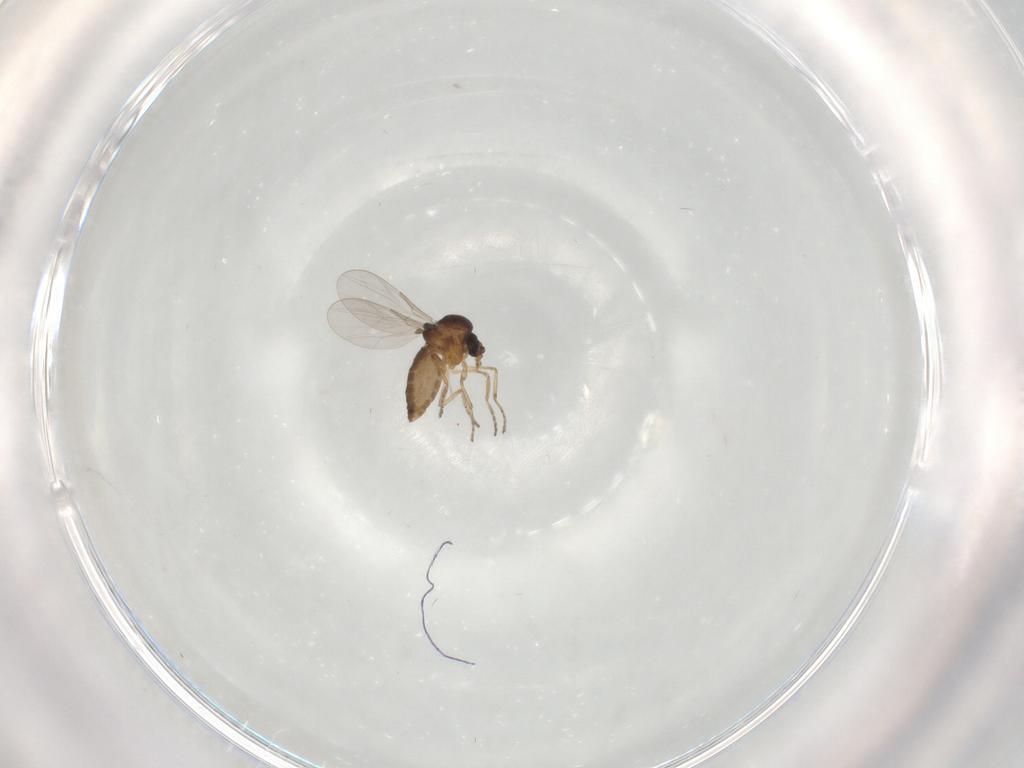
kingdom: Animalia
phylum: Arthropoda
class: Insecta
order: Diptera
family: Ceratopogonidae
